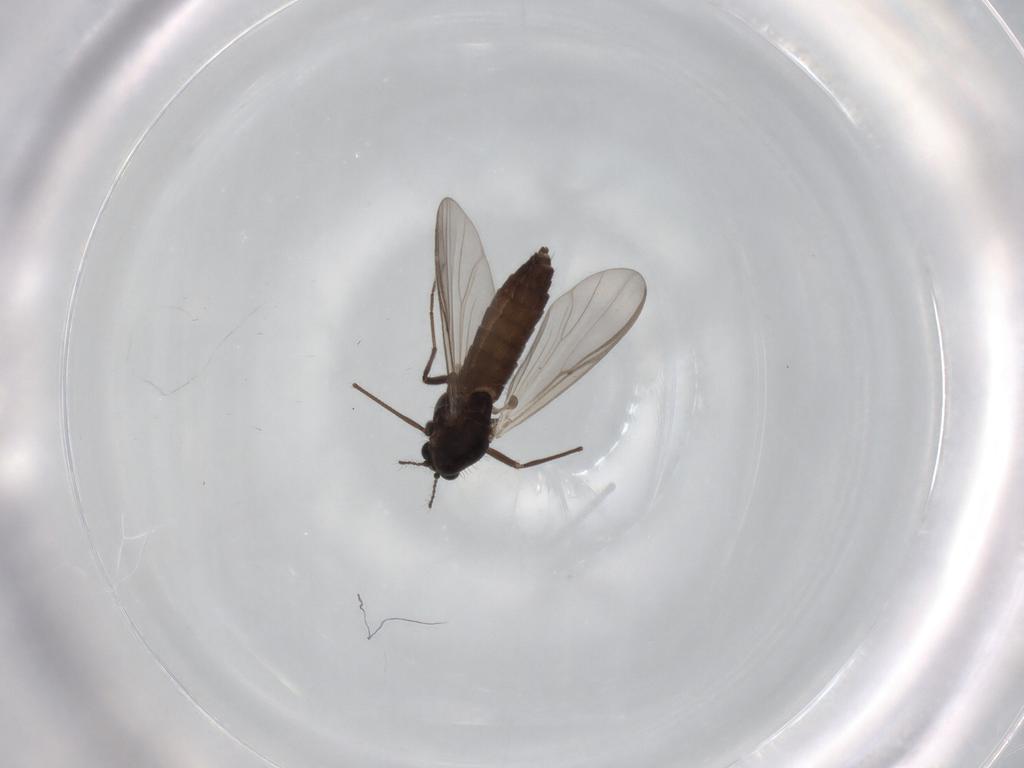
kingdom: Animalia
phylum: Arthropoda
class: Insecta
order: Diptera
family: Chironomidae
